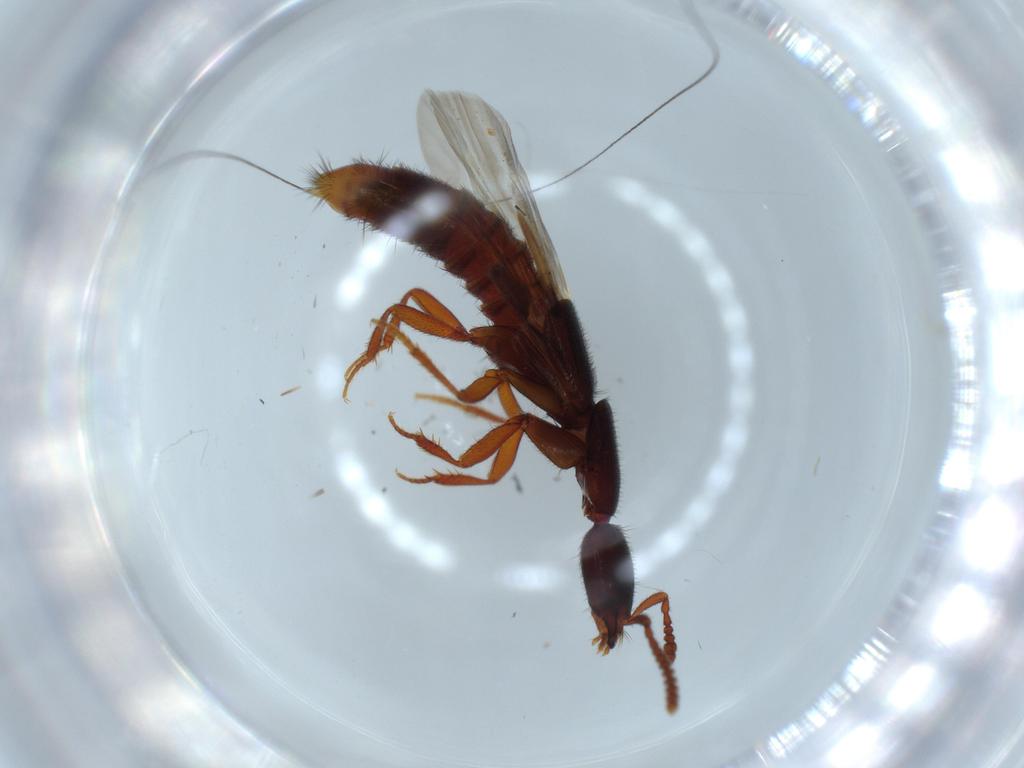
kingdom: Animalia
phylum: Arthropoda
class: Insecta
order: Coleoptera
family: Staphylinidae
